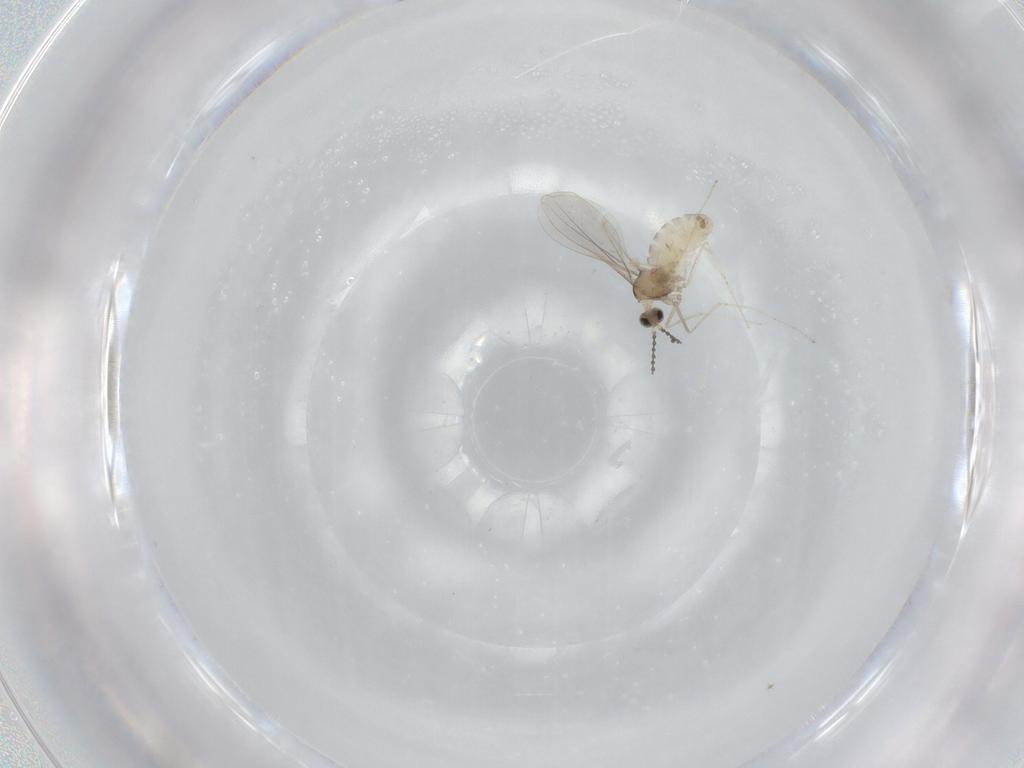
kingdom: Animalia
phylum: Arthropoda
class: Insecta
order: Diptera
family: Cecidomyiidae
